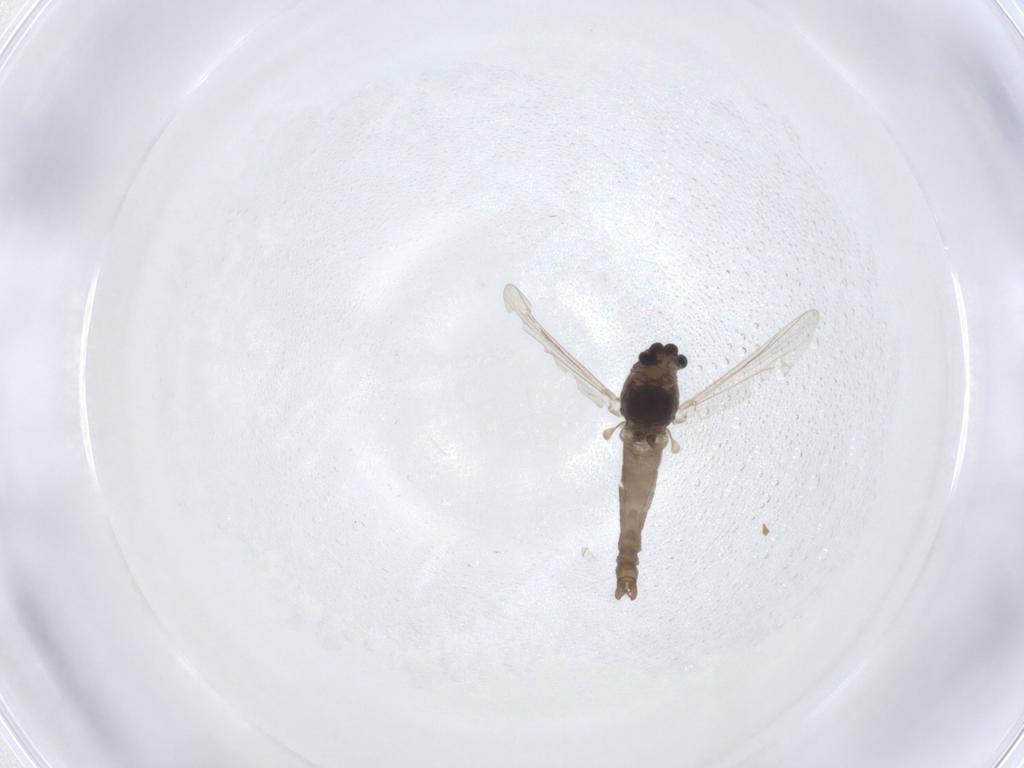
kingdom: Animalia
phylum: Arthropoda
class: Insecta
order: Diptera
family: Chironomidae
